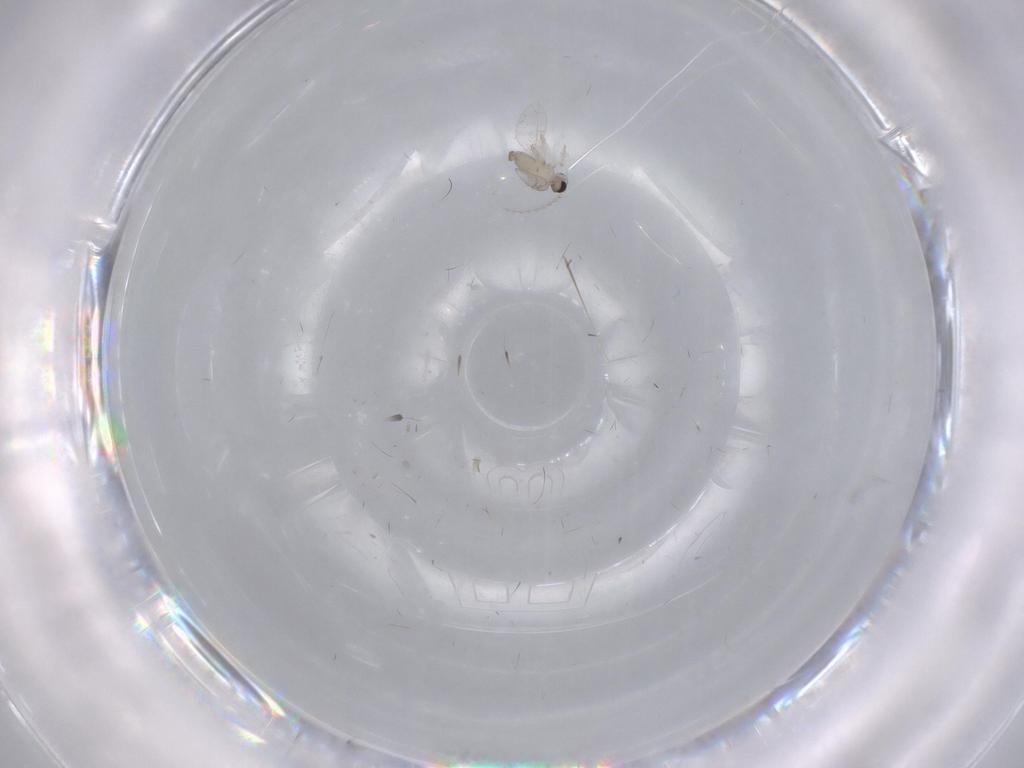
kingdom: Animalia
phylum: Arthropoda
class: Insecta
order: Diptera
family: Cecidomyiidae
